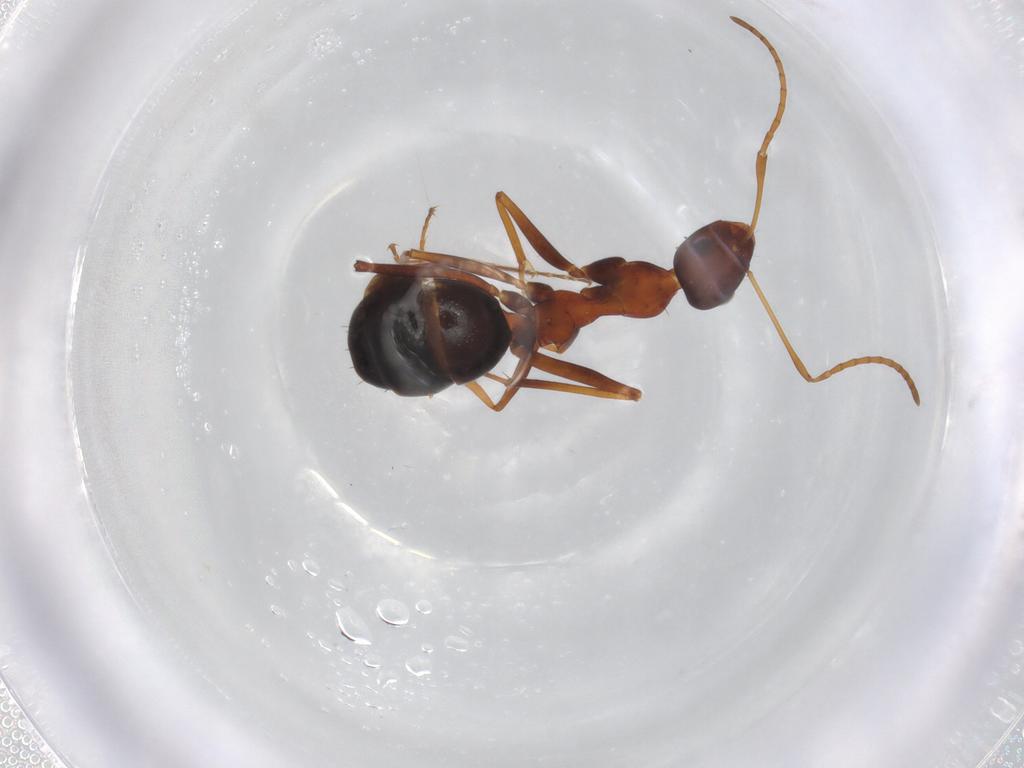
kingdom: Animalia
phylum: Arthropoda
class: Insecta
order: Hymenoptera
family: Formicidae
